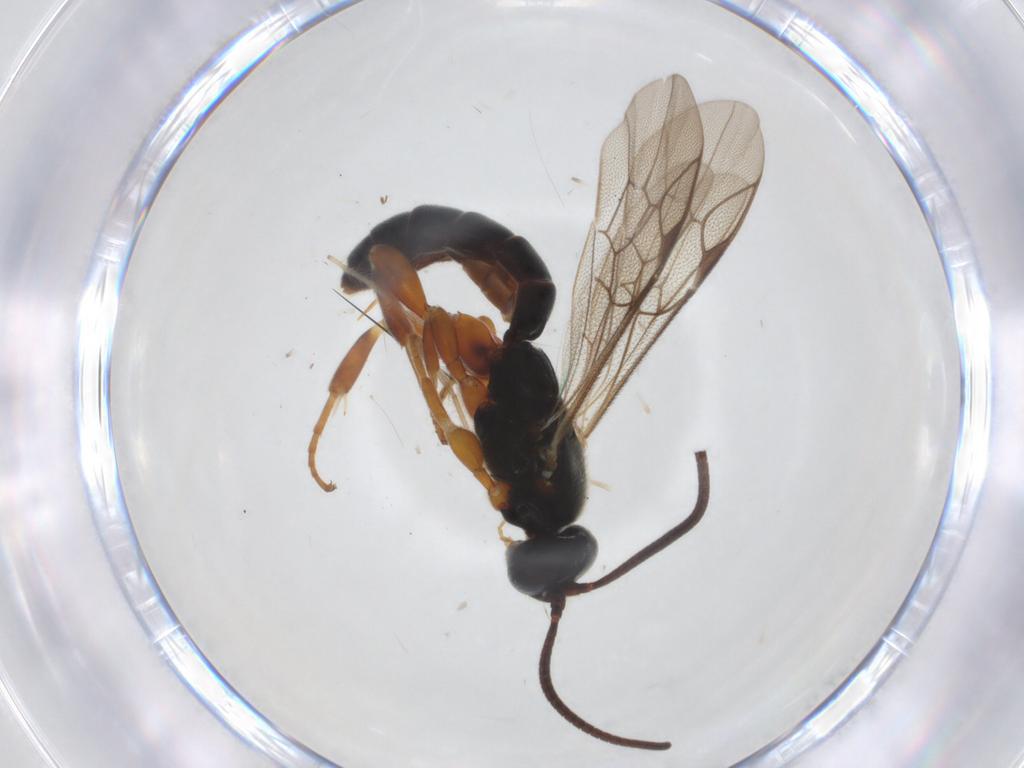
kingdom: Animalia
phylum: Arthropoda
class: Insecta
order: Hymenoptera
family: Ichneumonidae
